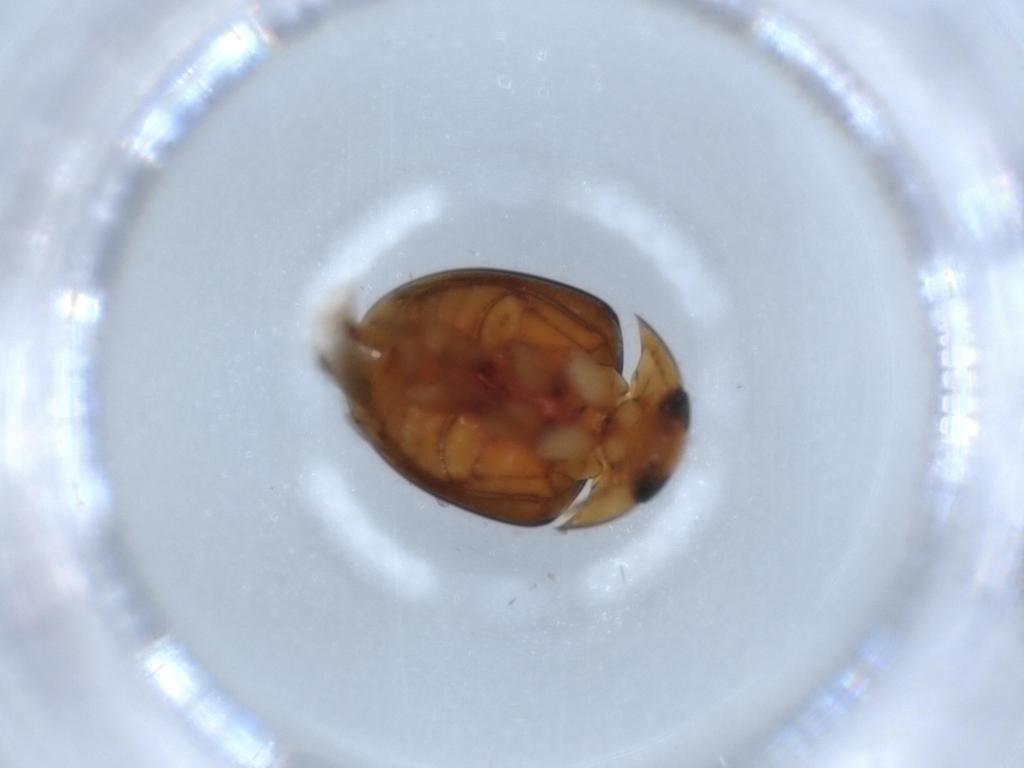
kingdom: Animalia
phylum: Arthropoda
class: Insecta
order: Coleoptera
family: Phalacridae
